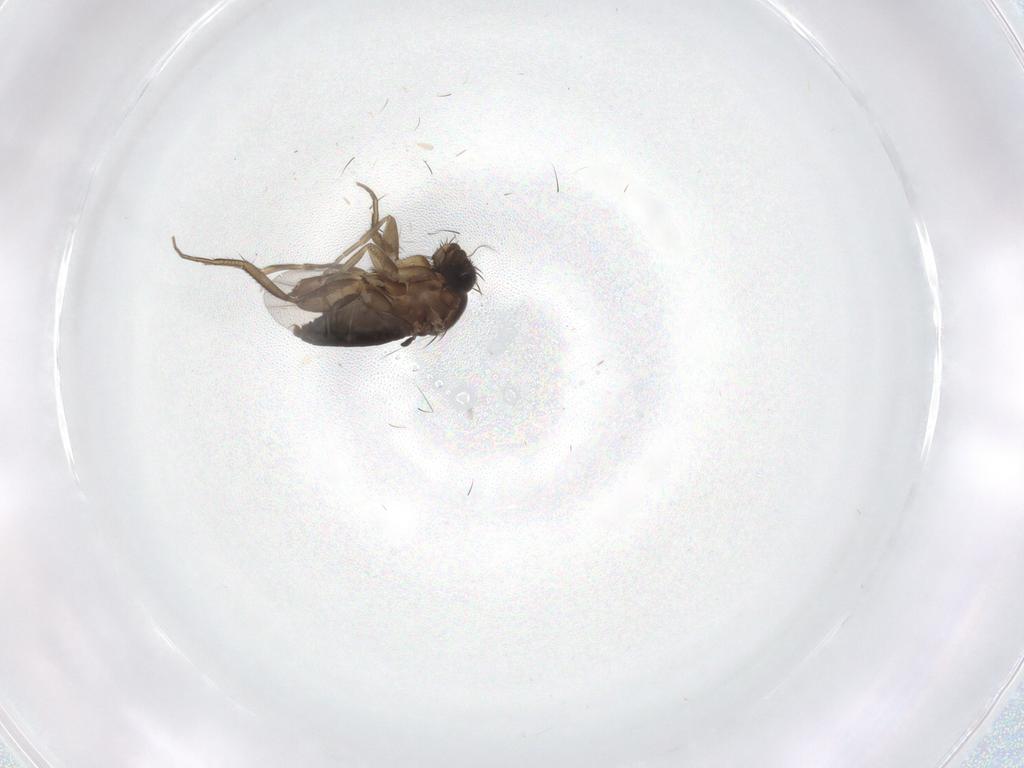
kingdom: Animalia
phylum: Arthropoda
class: Insecta
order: Diptera
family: Phoridae
